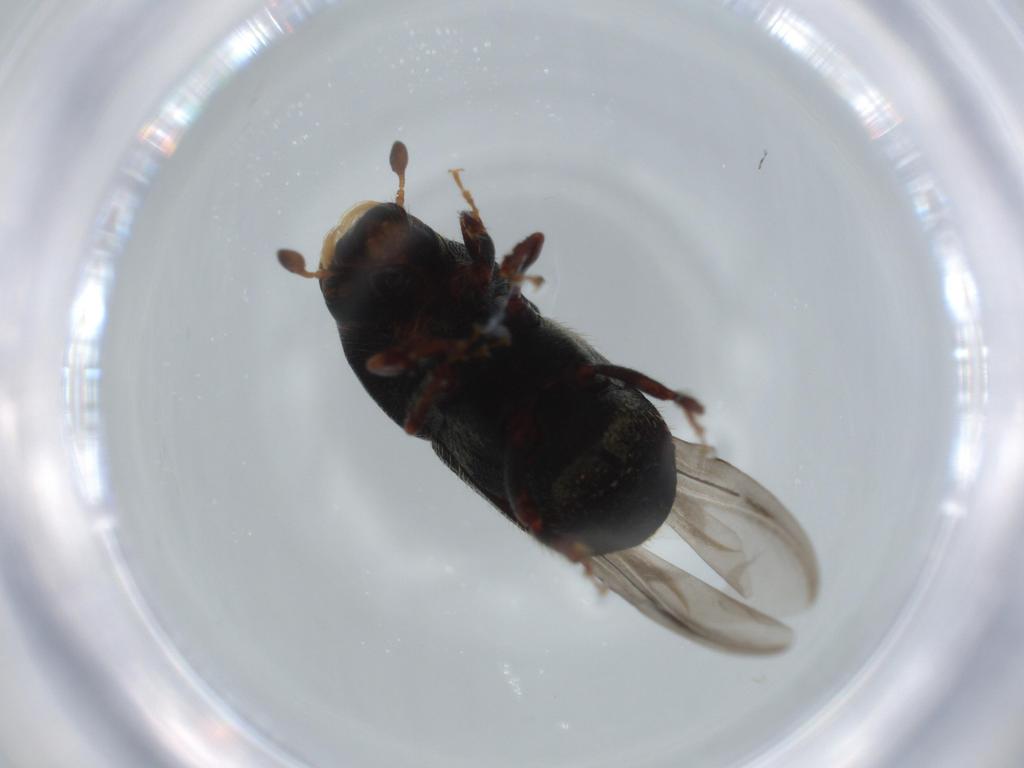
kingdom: Animalia
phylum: Arthropoda
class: Insecta
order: Coleoptera
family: Curculionidae
